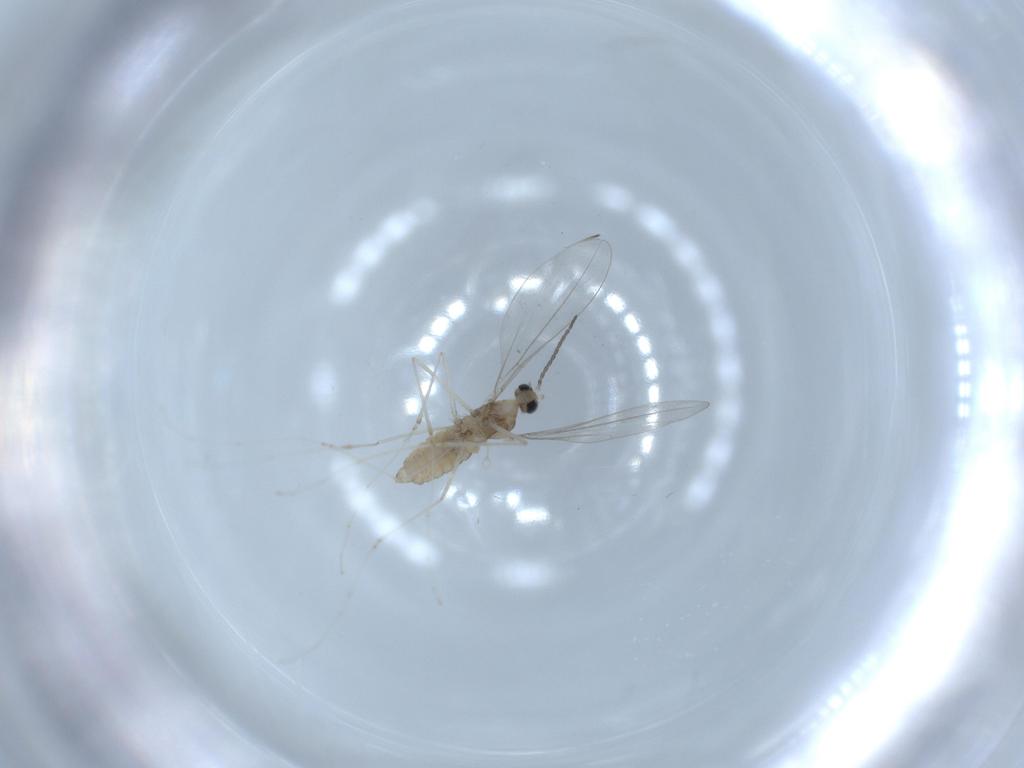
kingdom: Animalia
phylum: Arthropoda
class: Insecta
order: Diptera
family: Cecidomyiidae
